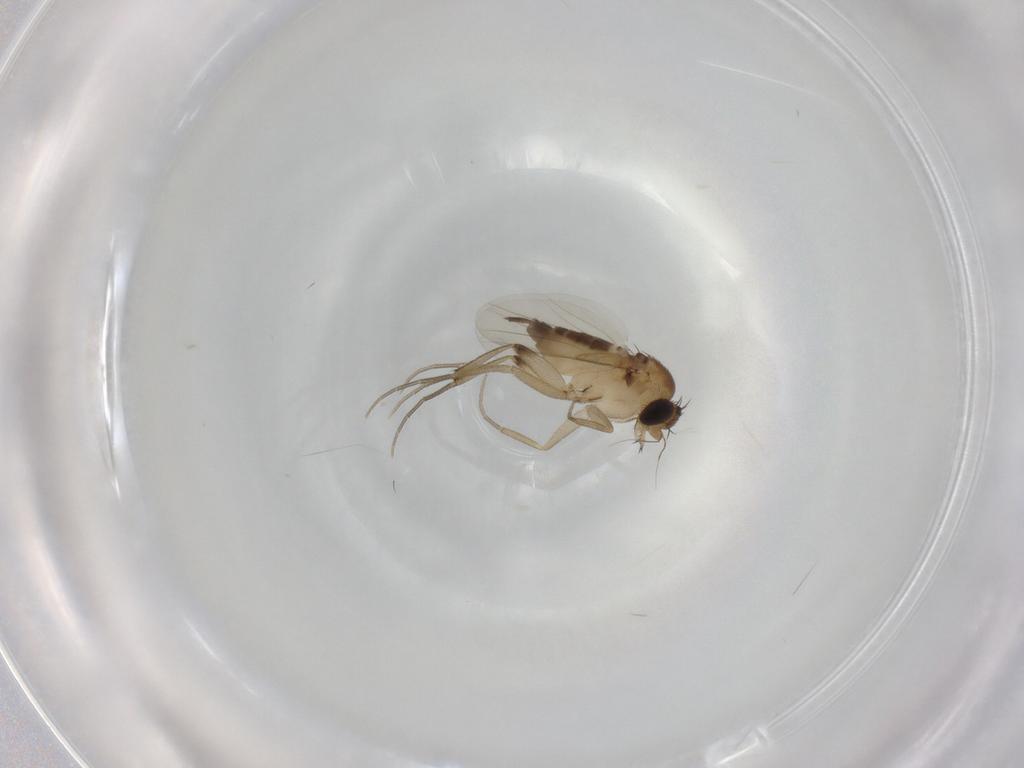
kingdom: Animalia
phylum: Arthropoda
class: Insecta
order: Diptera
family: Phoridae
